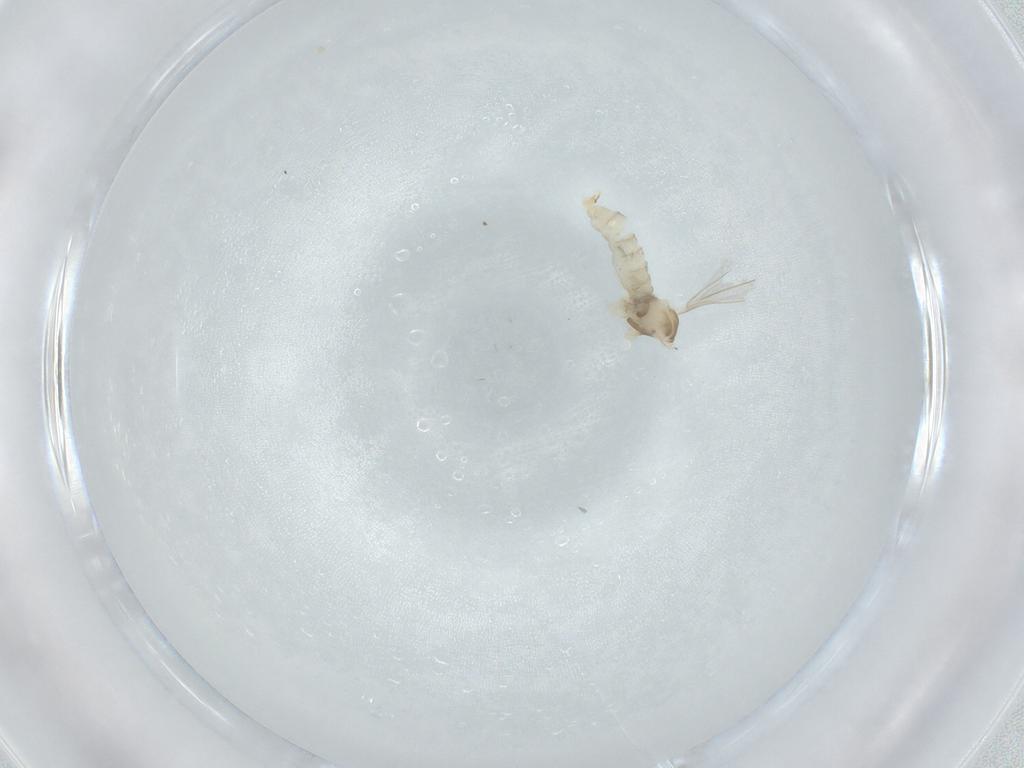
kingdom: Animalia
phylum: Arthropoda
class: Insecta
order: Diptera
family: Cecidomyiidae
